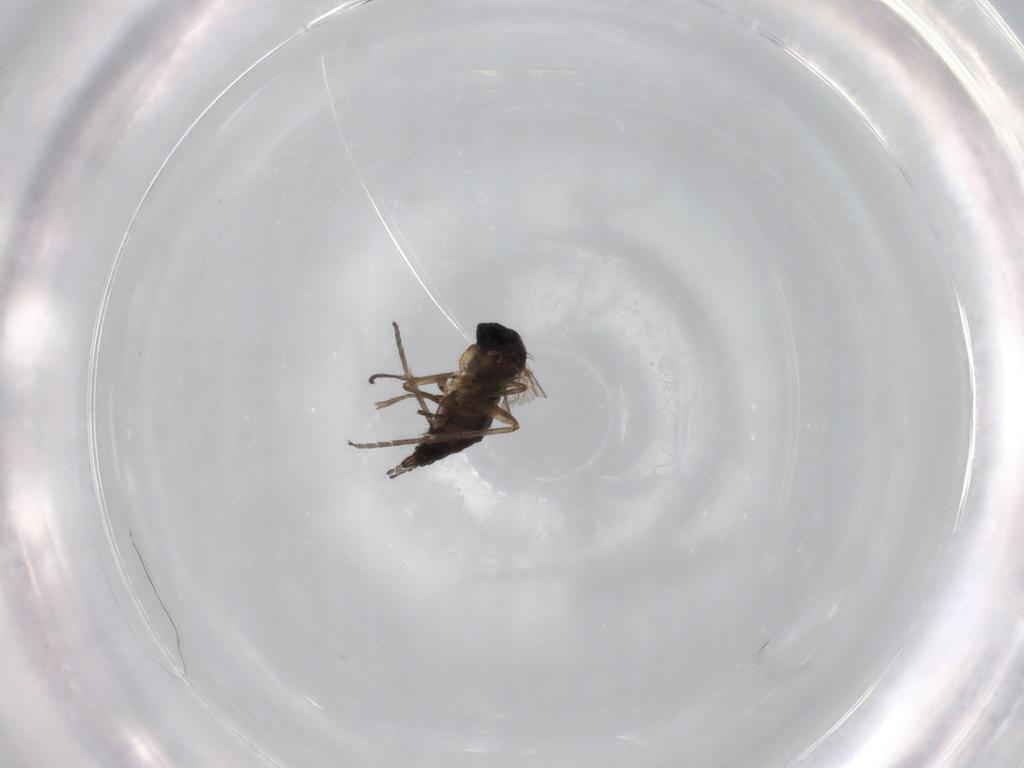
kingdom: Animalia
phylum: Arthropoda
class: Insecta
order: Diptera
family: Sciaridae
